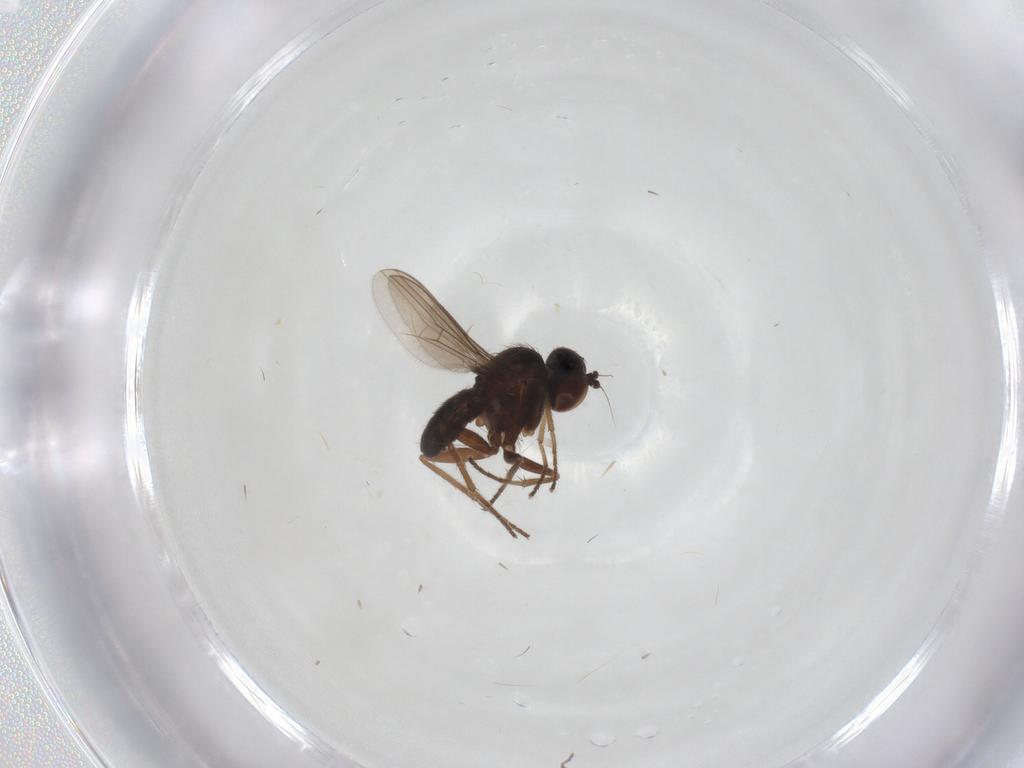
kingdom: Animalia
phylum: Arthropoda
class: Insecta
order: Diptera
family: Dolichopodidae
